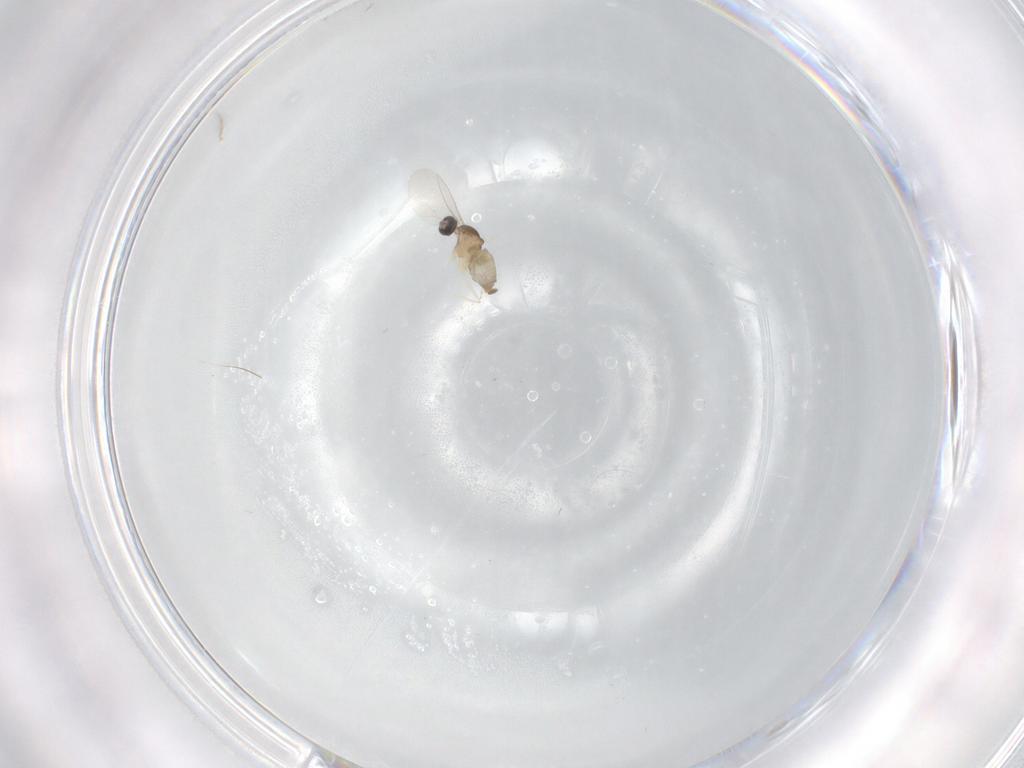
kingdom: Animalia
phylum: Arthropoda
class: Insecta
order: Diptera
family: Cecidomyiidae
